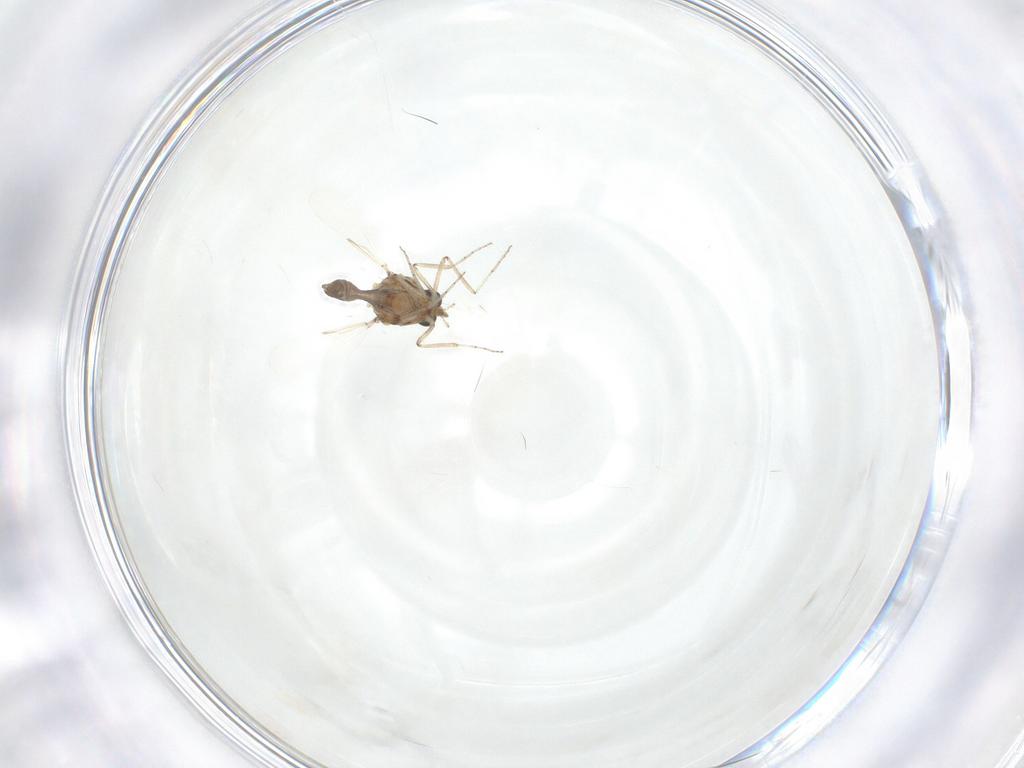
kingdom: Animalia
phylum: Arthropoda
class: Insecta
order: Diptera
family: Ceratopogonidae
